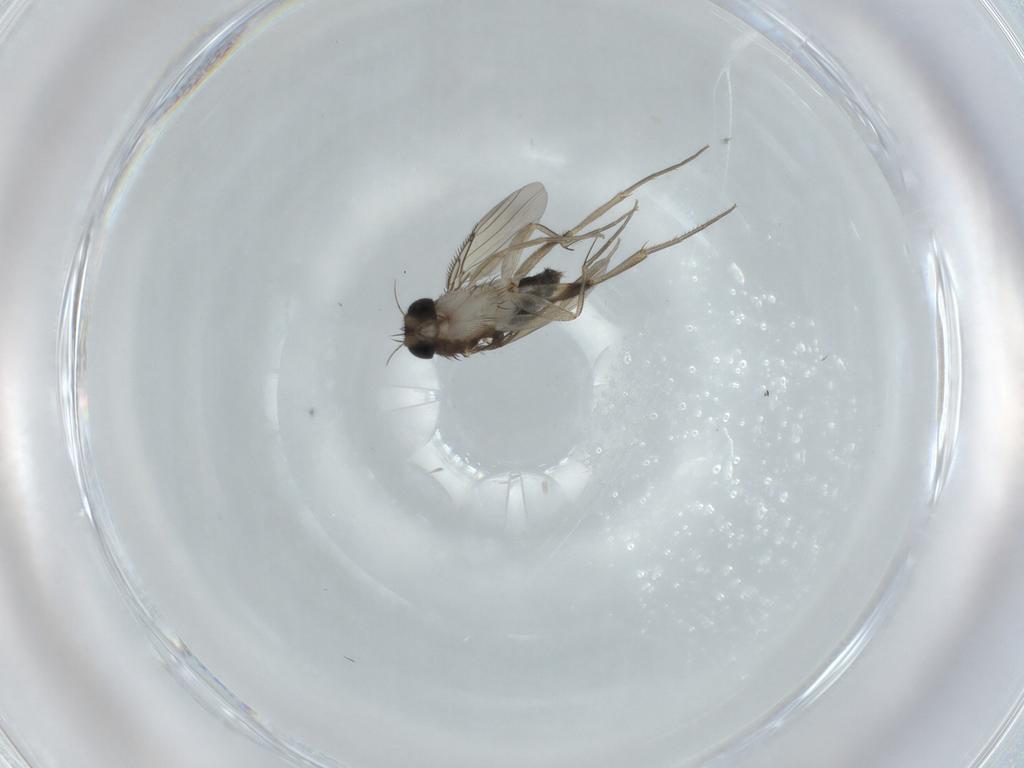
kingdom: Animalia
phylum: Arthropoda
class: Insecta
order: Diptera
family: Phoridae
